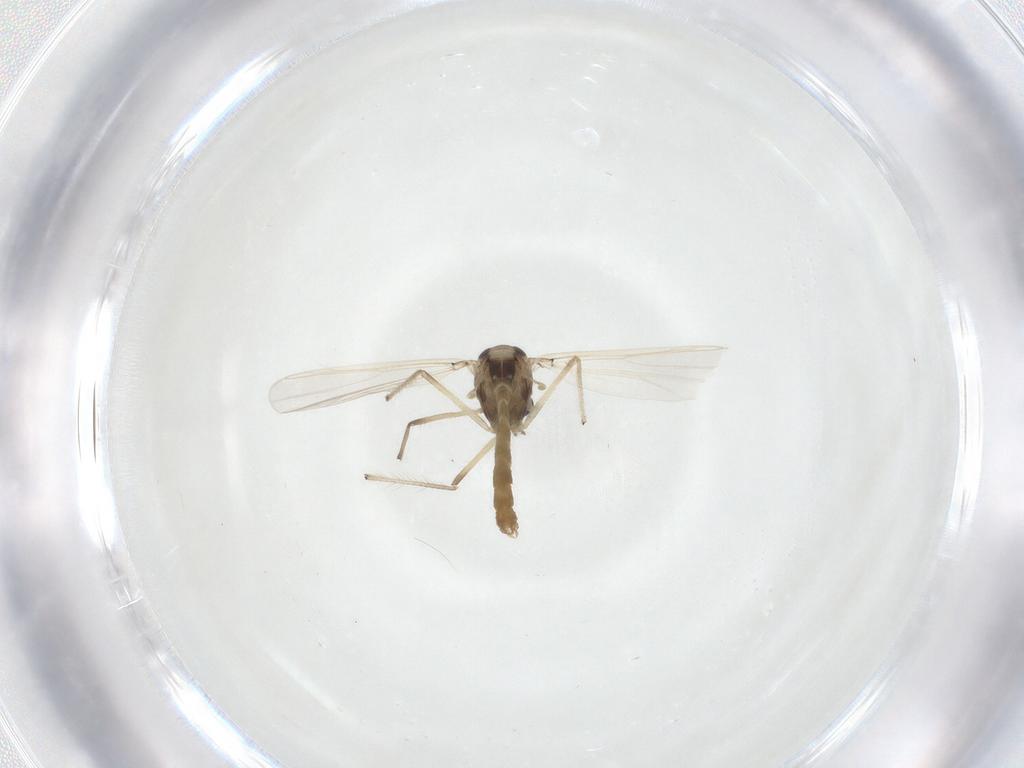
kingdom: Animalia
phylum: Arthropoda
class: Insecta
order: Diptera
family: Chironomidae
